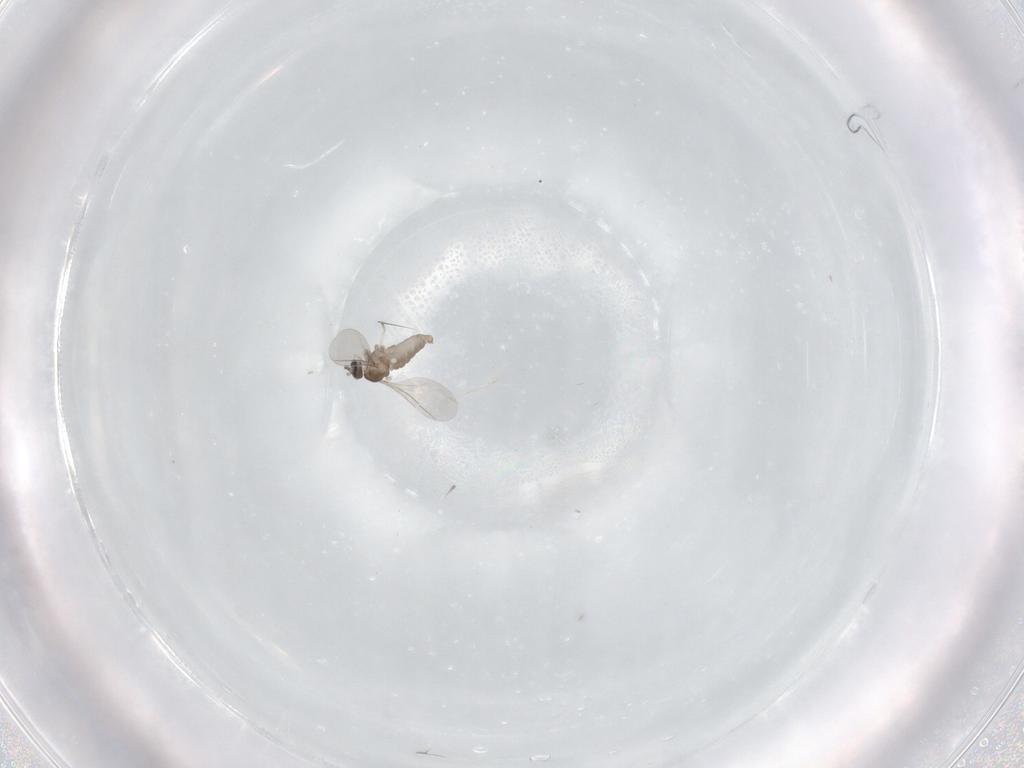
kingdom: Animalia
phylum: Arthropoda
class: Insecta
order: Diptera
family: Cecidomyiidae
